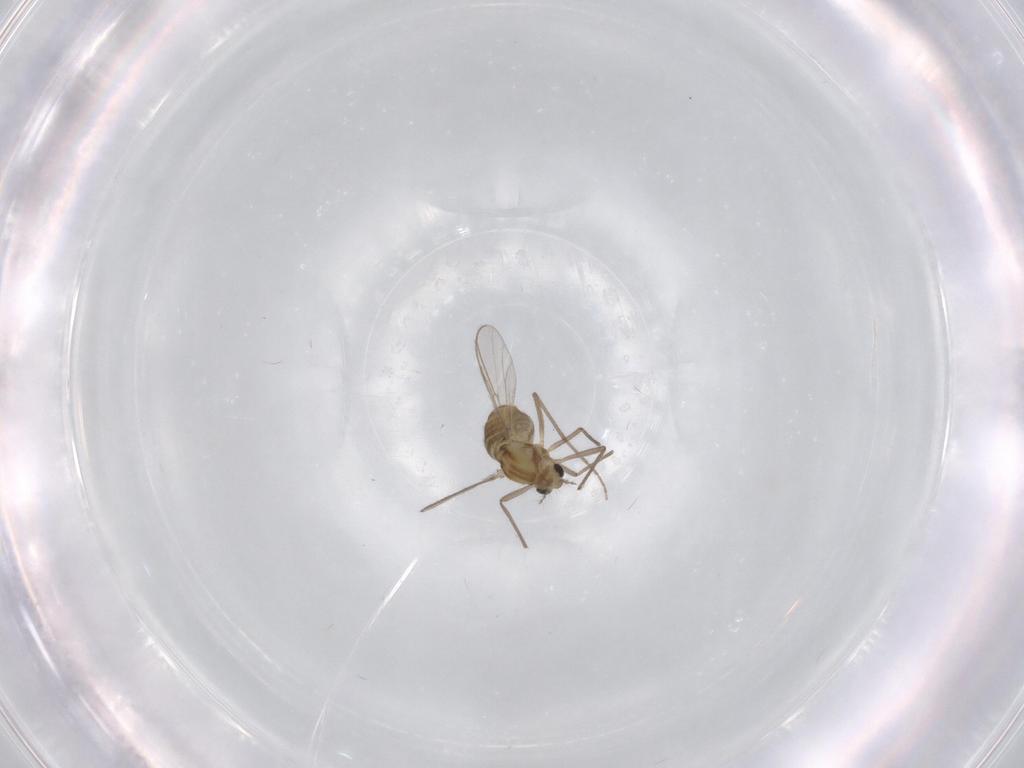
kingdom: Animalia
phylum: Arthropoda
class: Insecta
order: Diptera
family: Chironomidae
